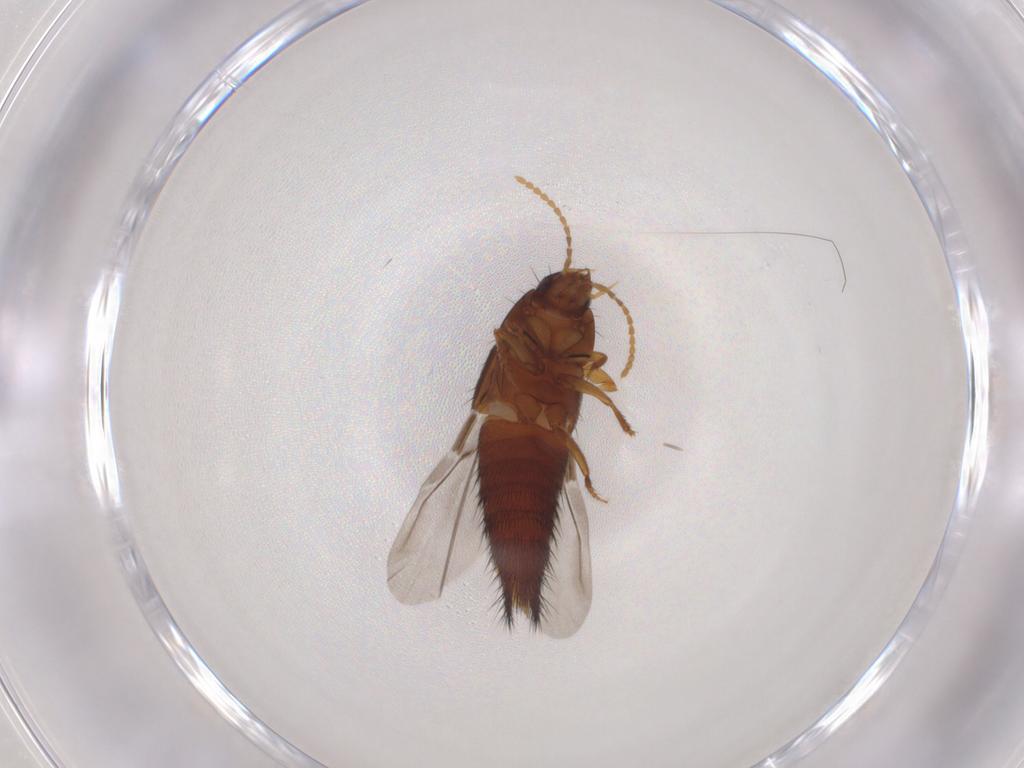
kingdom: Animalia
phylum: Arthropoda
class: Insecta
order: Coleoptera
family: Staphylinidae
